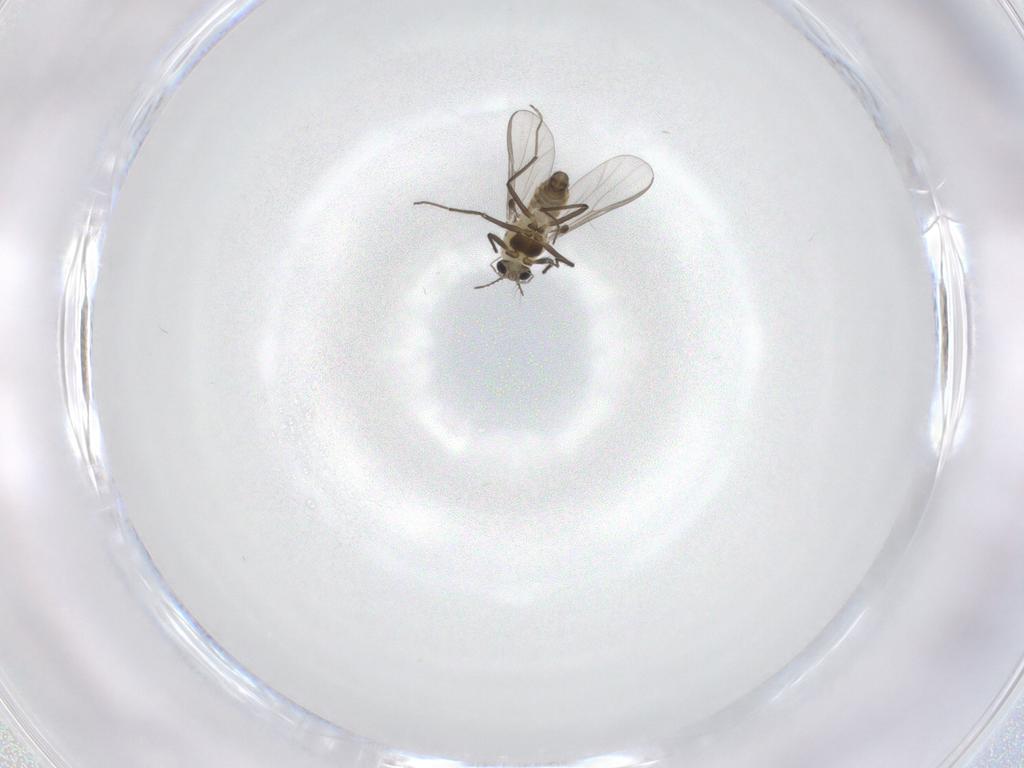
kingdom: Animalia
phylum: Arthropoda
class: Insecta
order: Diptera
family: Chironomidae
